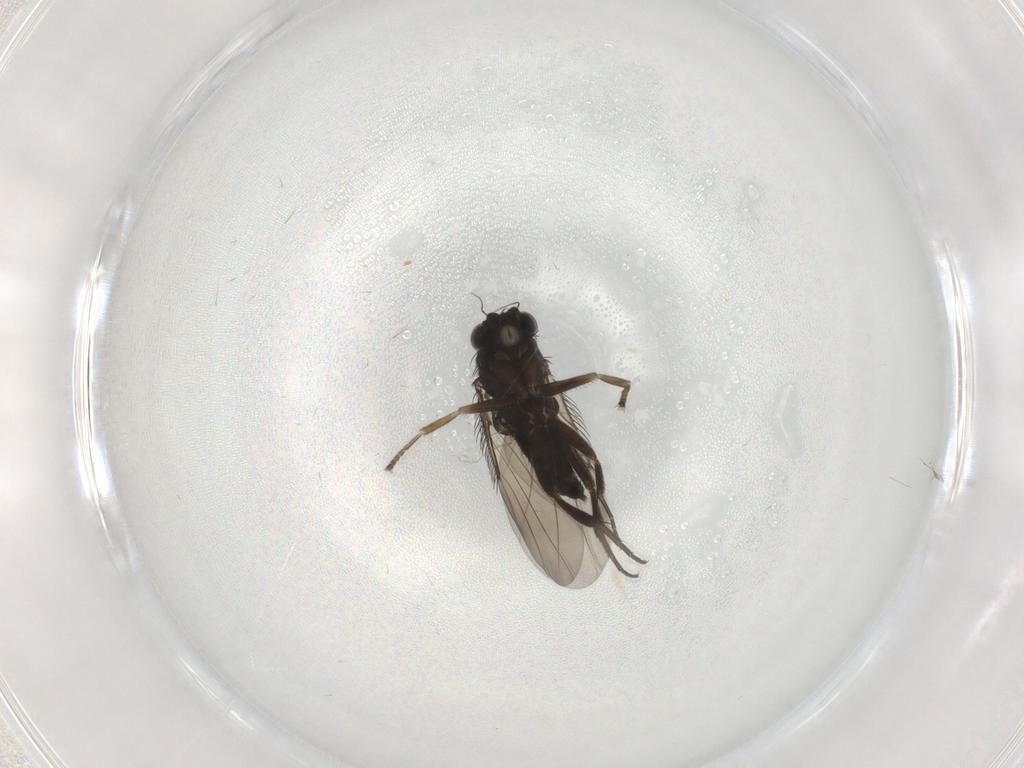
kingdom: Animalia
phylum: Arthropoda
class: Insecta
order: Diptera
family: Phoridae
